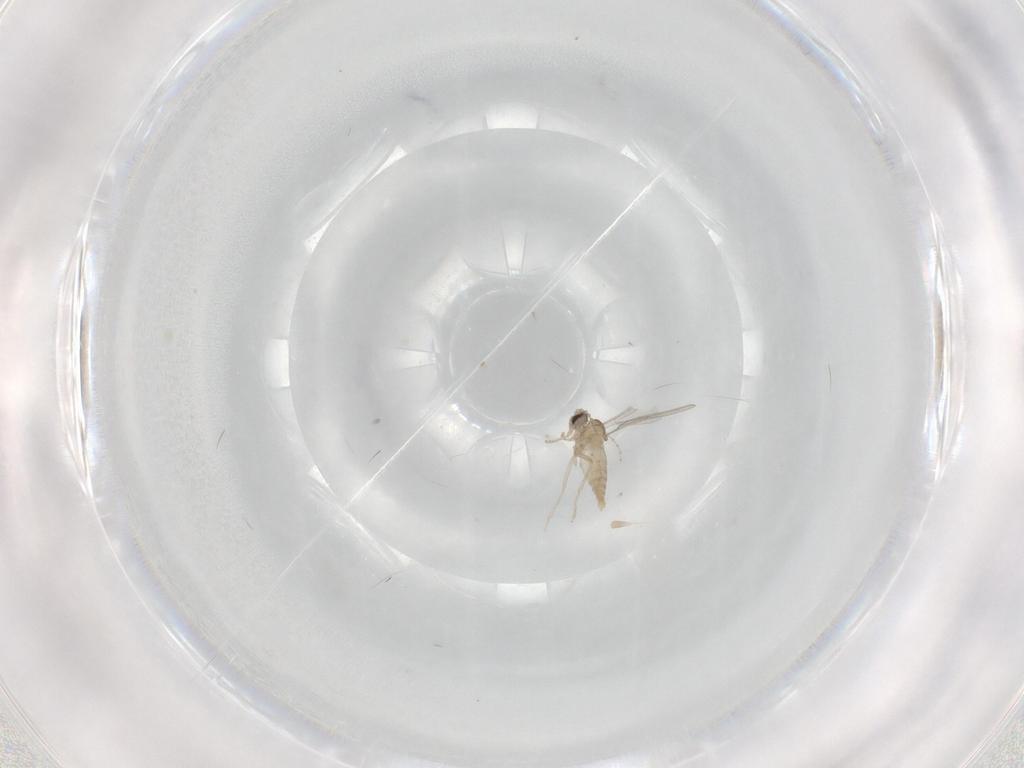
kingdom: Animalia
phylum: Arthropoda
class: Insecta
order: Diptera
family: Cecidomyiidae
